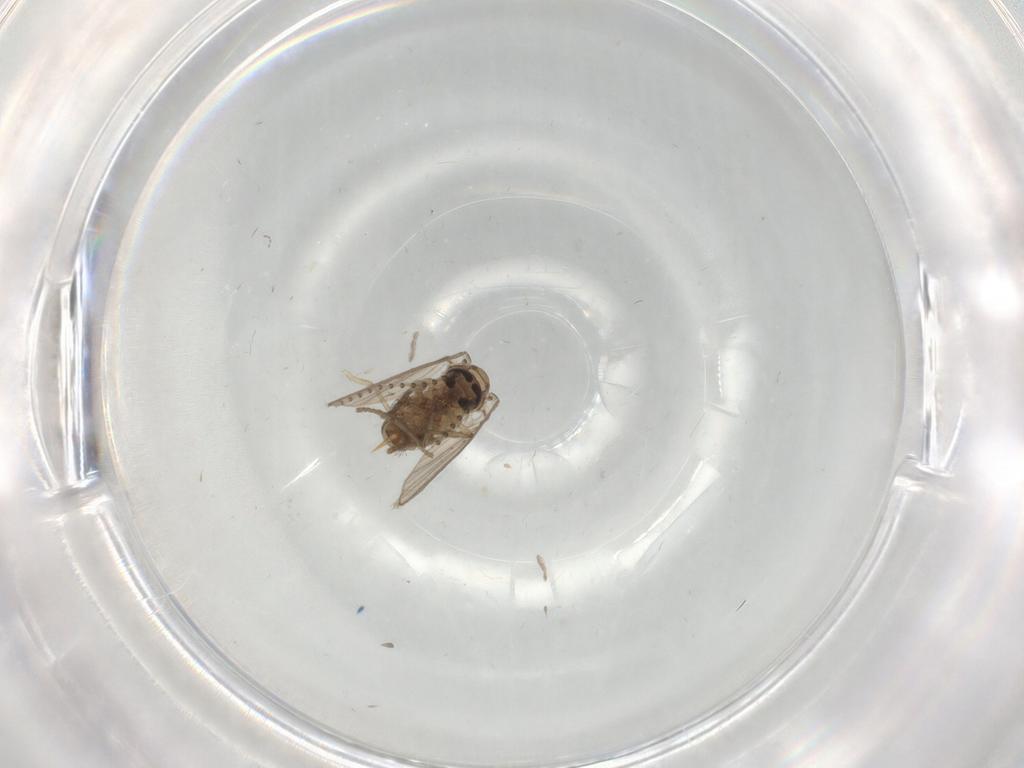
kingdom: Animalia
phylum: Arthropoda
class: Insecta
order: Diptera
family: Psychodidae
